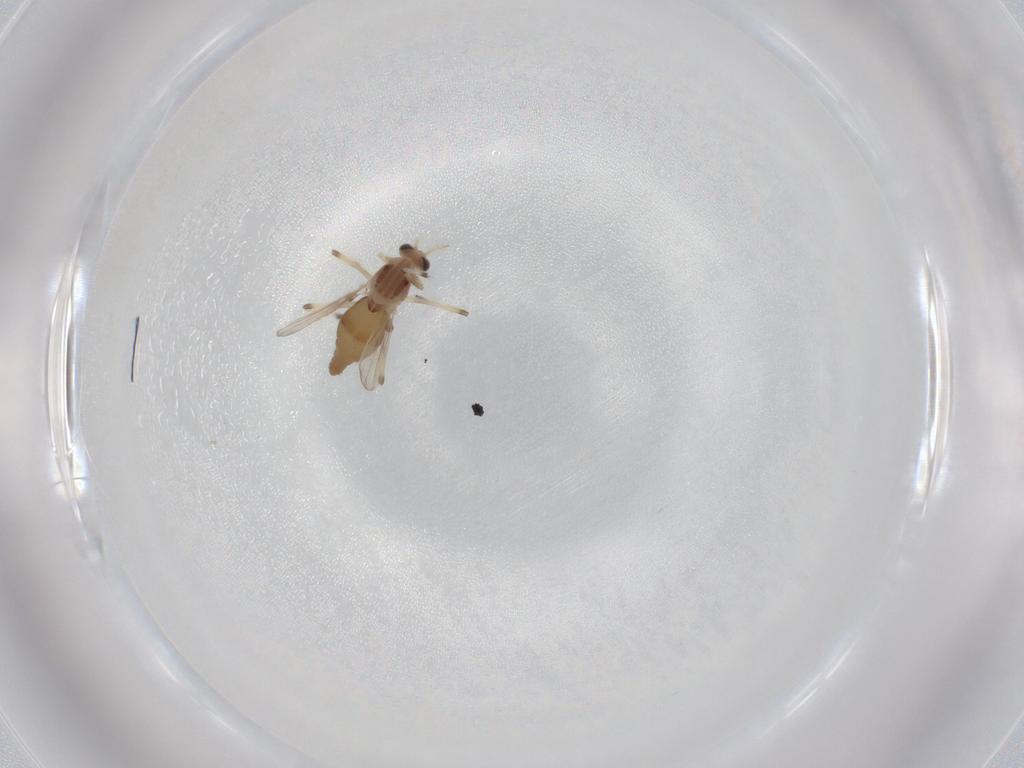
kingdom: Animalia
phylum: Arthropoda
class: Insecta
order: Diptera
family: Chironomidae
